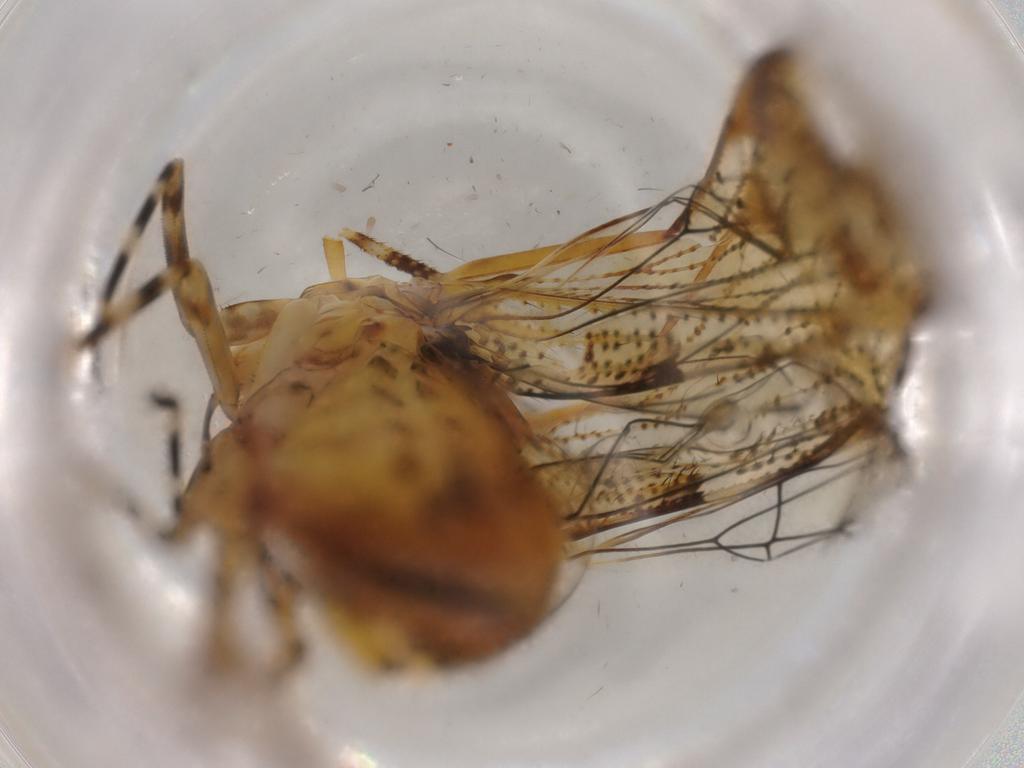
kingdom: Animalia
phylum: Arthropoda
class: Insecta
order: Hemiptera
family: Delphacidae
